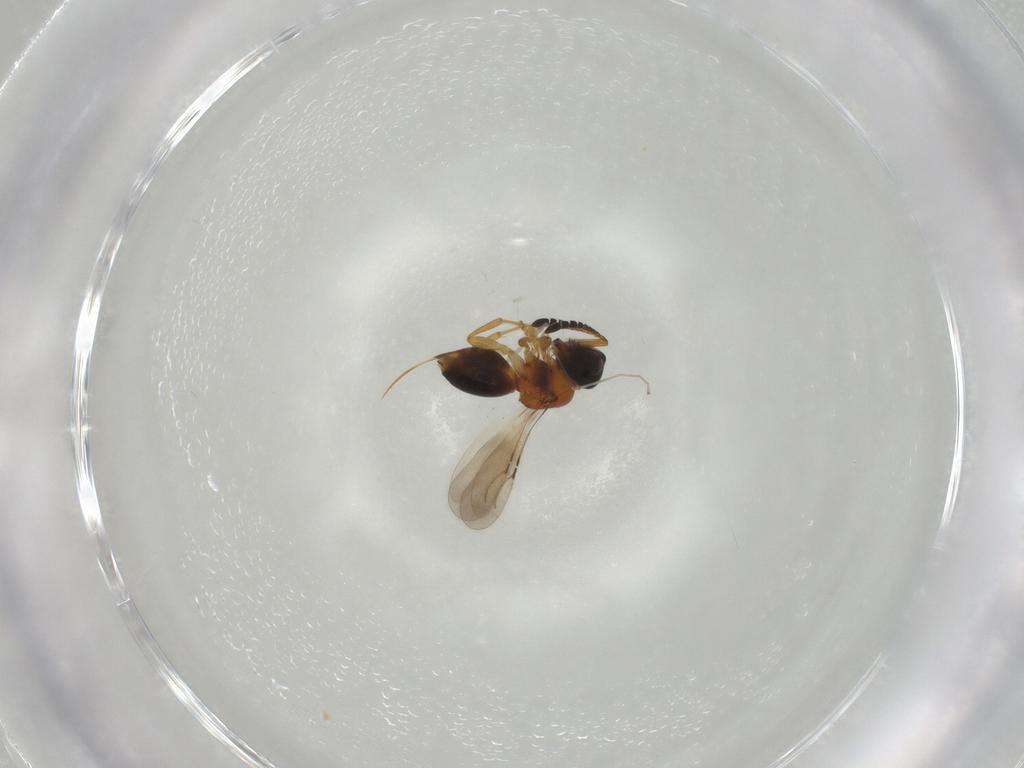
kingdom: Animalia
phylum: Arthropoda
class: Insecta
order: Hymenoptera
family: Ceraphronidae
